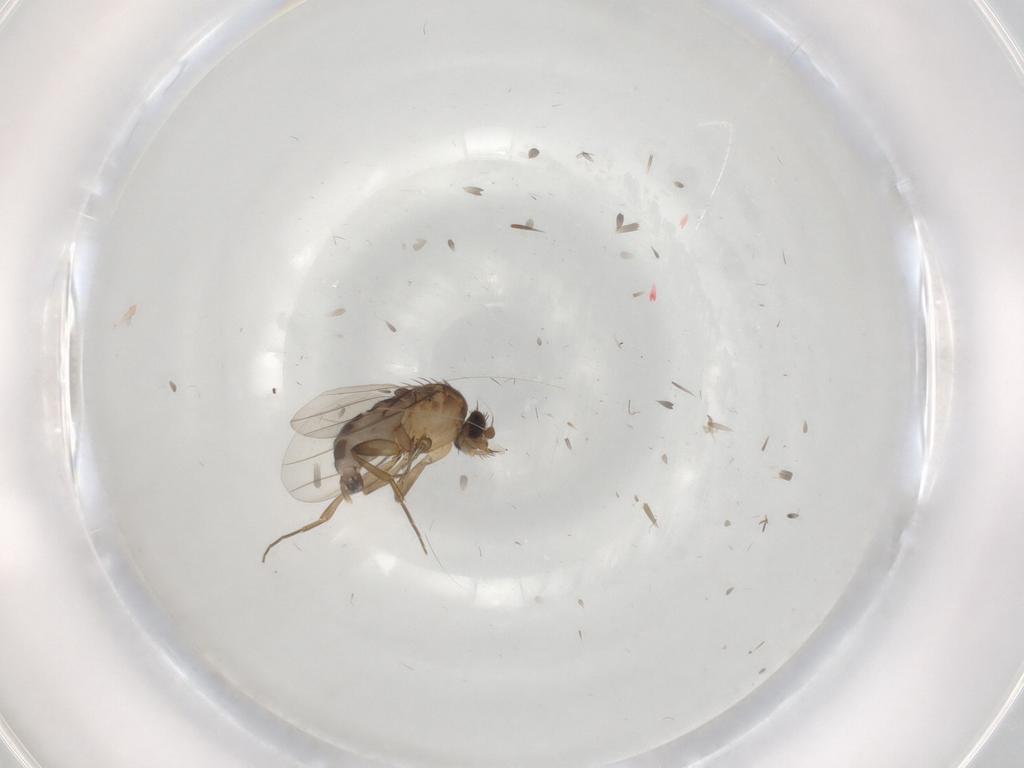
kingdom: Animalia
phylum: Arthropoda
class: Insecta
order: Diptera
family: Phoridae
